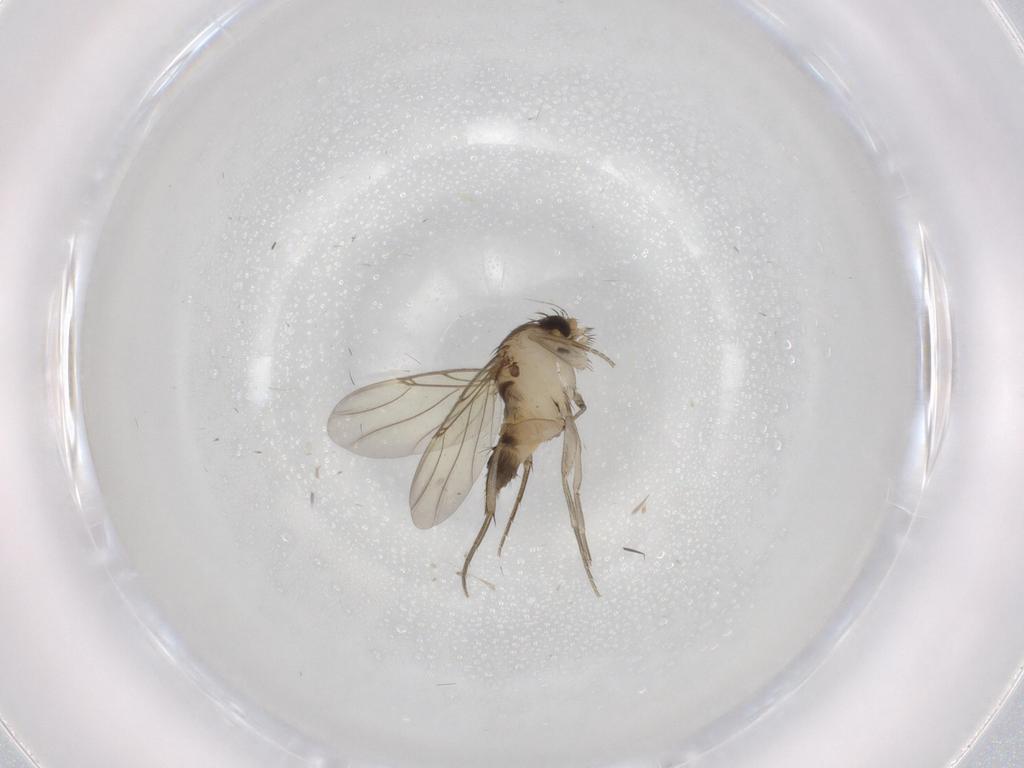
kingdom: Animalia
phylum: Arthropoda
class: Insecta
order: Diptera
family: Phoridae
